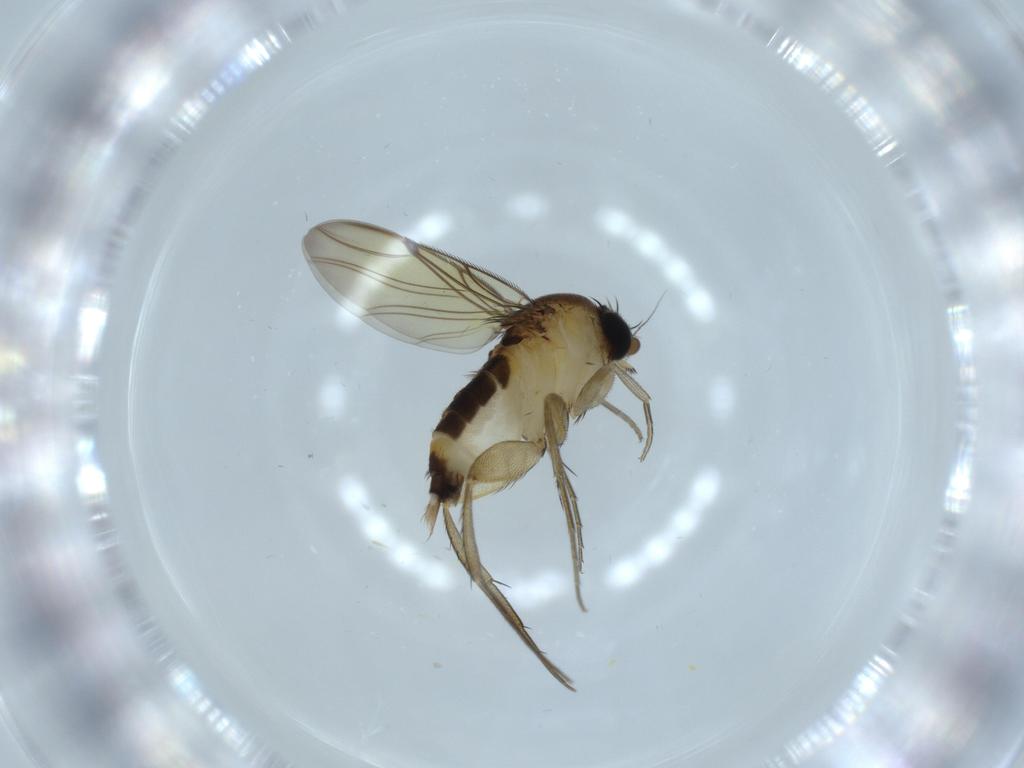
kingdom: Animalia
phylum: Arthropoda
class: Insecta
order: Diptera
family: Phoridae
